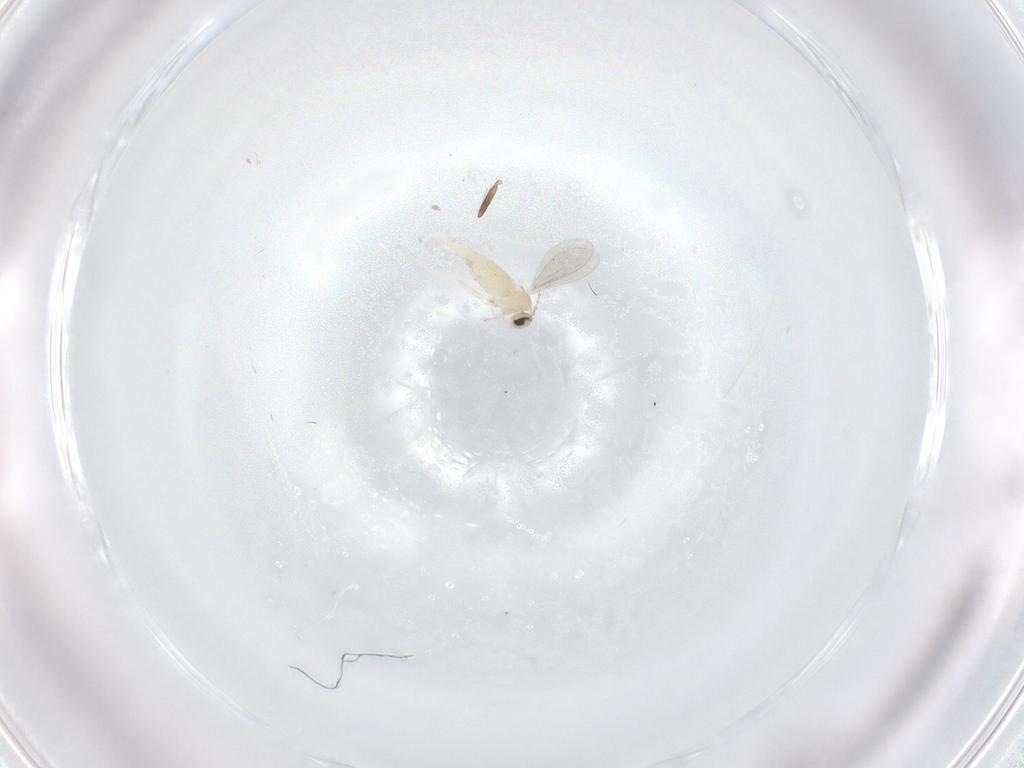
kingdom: Animalia
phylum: Arthropoda
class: Insecta
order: Diptera
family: Cecidomyiidae
